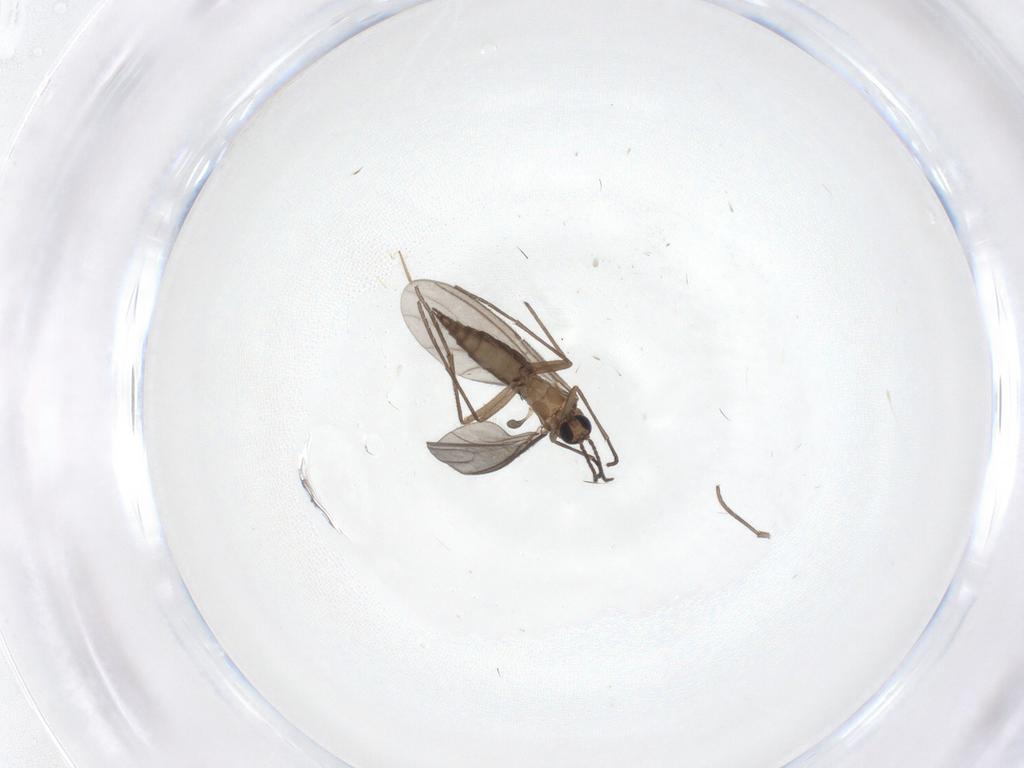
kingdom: Animalia
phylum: Arthropoda
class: Insecta
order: Diptera
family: Sciaridae
